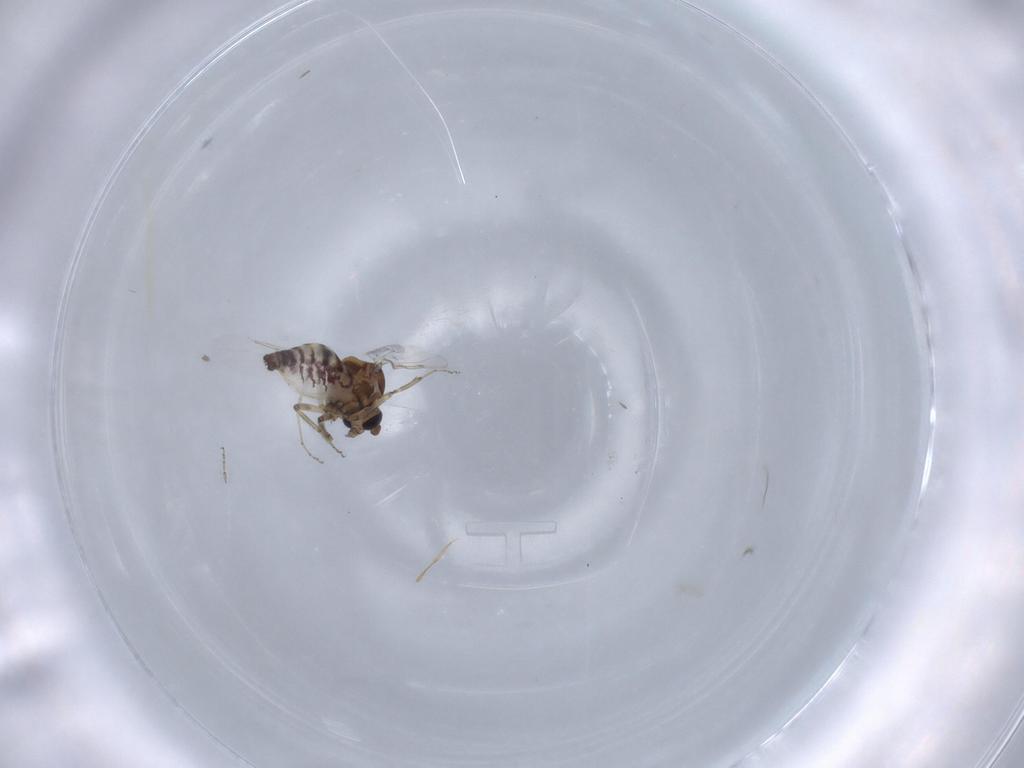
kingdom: Animalia
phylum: Arthropoda
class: Insecta
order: Diptera
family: Ceratopogonidae
